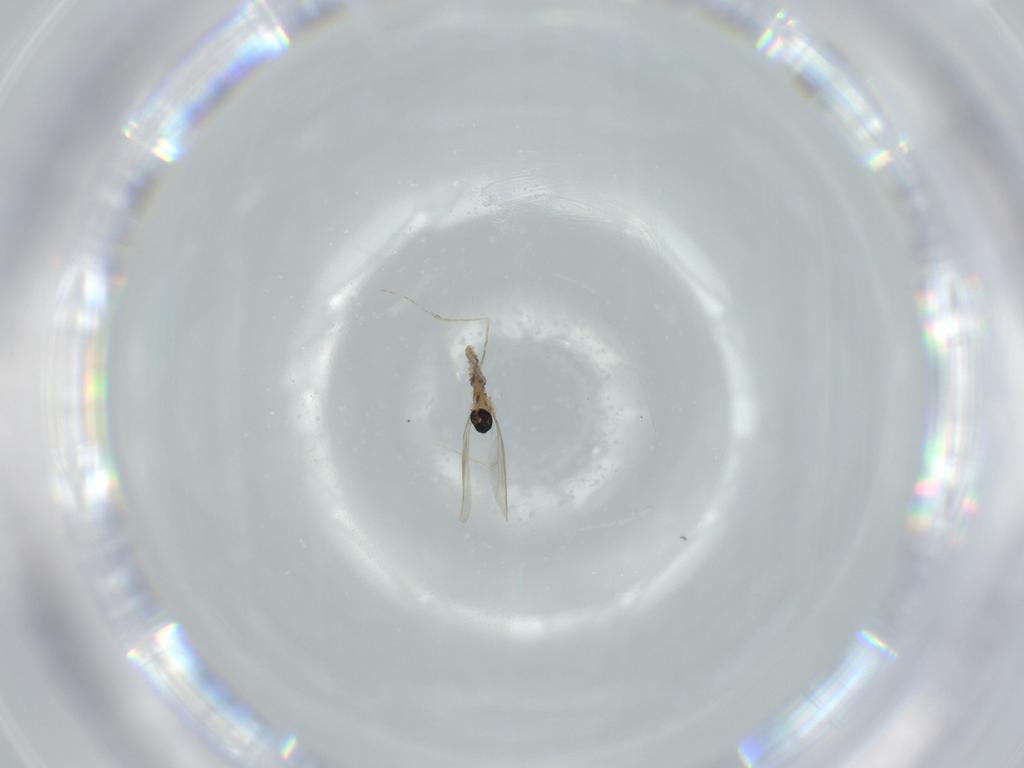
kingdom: Animalia
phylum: Arthropoda
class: Insecta
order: Diptera
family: Cecidomyiidae
